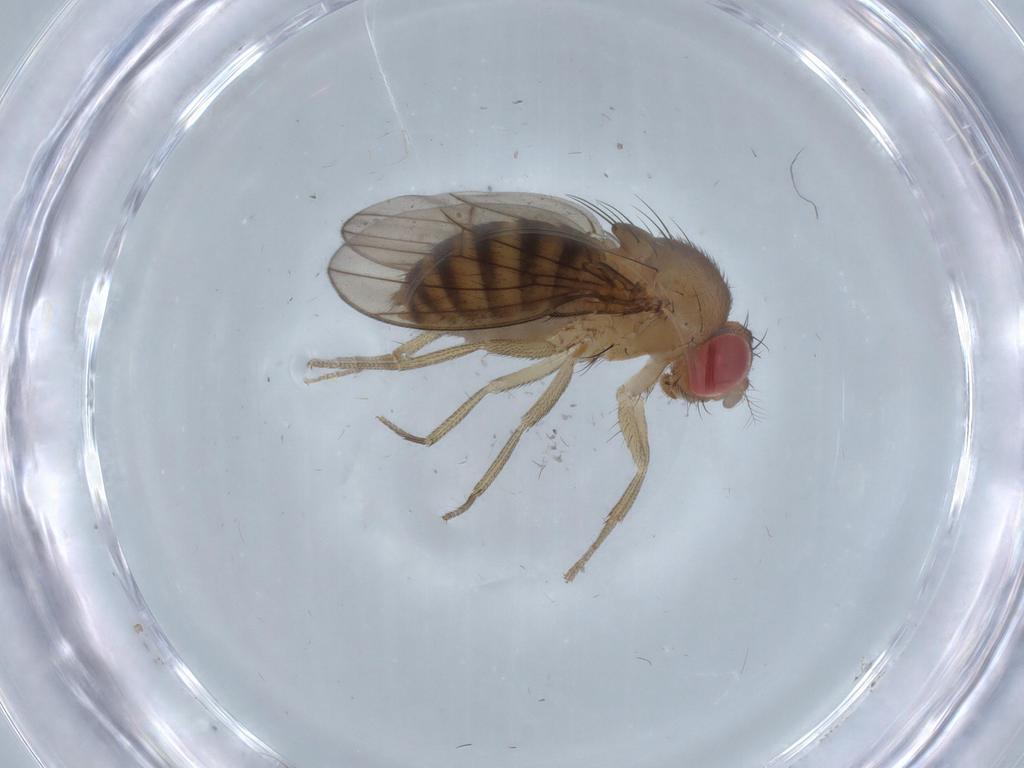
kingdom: Animalia
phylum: Arthropoda
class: Insecta
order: Diptera
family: Drosophilidae
